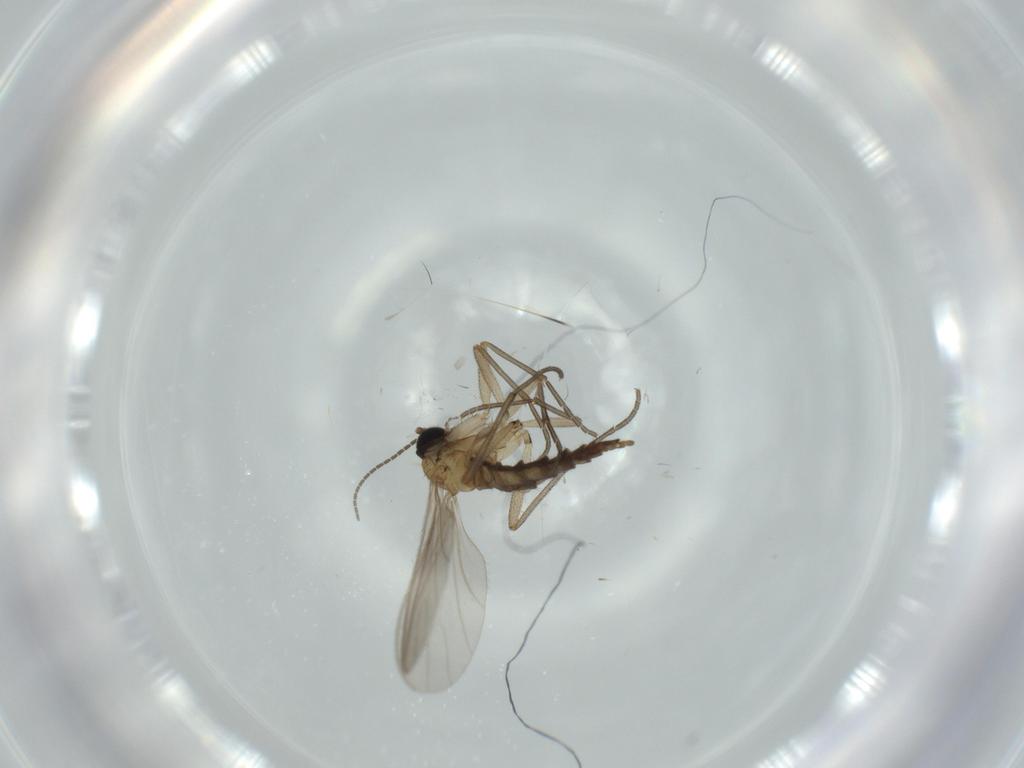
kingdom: Animalia
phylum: Arthropoda
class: Insecta
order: Diptera
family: Sciaridae
